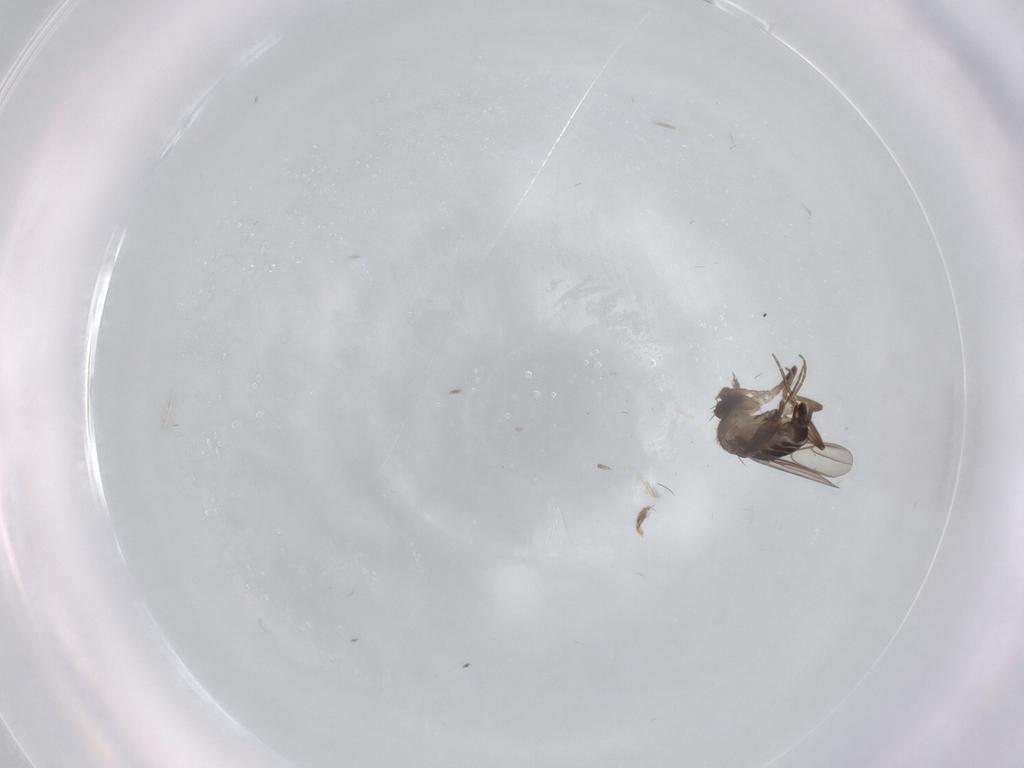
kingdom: Animalia
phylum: Arthropoda
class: Insecta
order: Diptera
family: Phoridae
